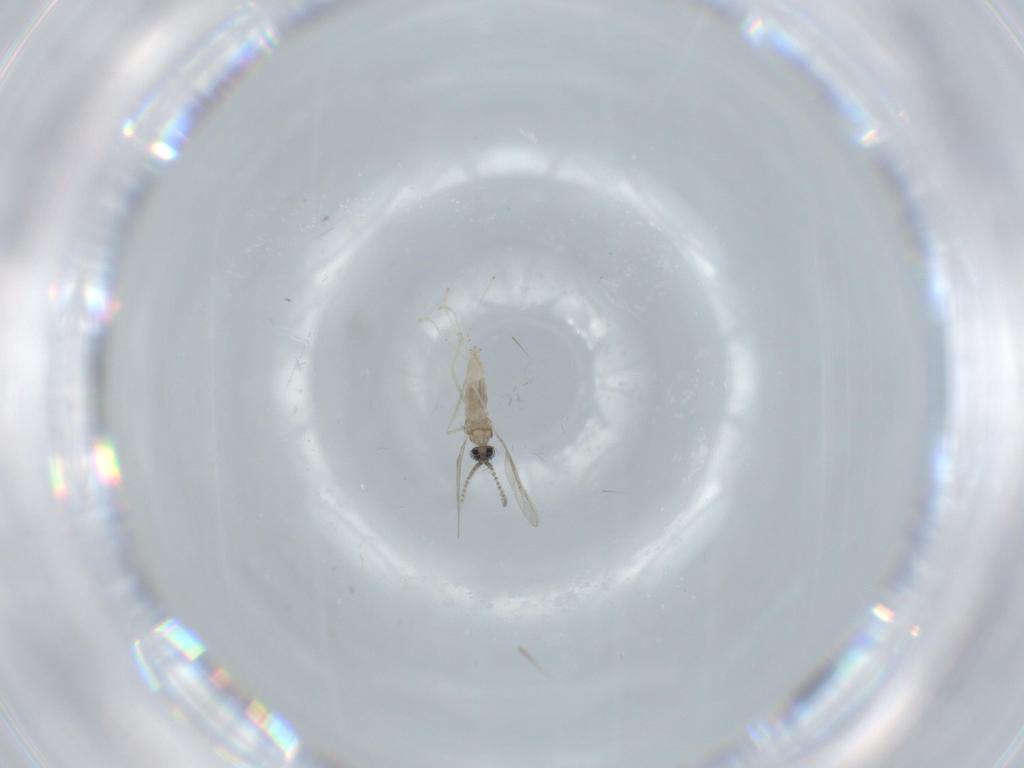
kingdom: Animalia
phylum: Arthropoda
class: Insecta
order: Diptera
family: Cecidomyiidae
